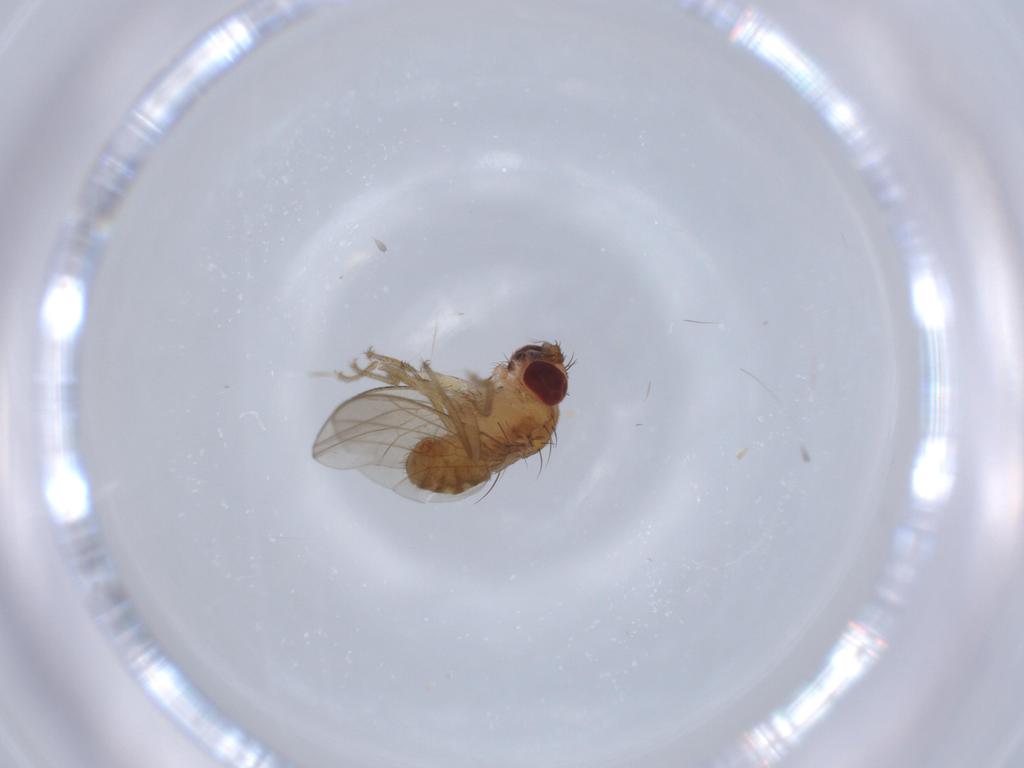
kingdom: Animalia
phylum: Arthropoda
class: Insecta
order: Diptera
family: Drosophilidae
